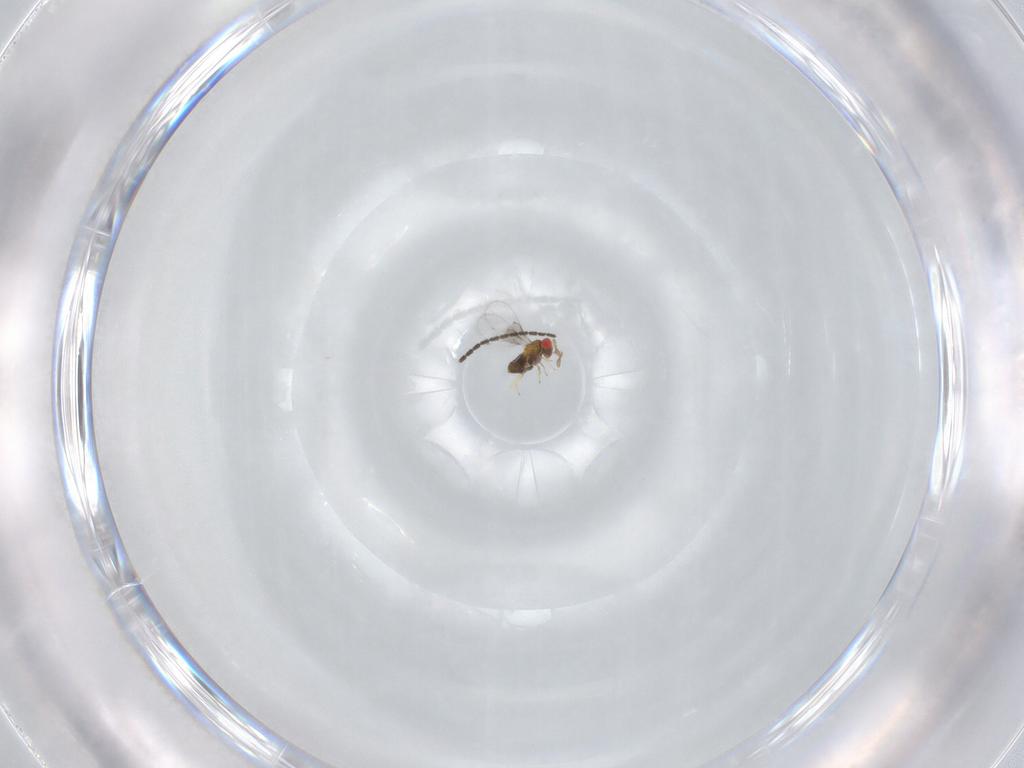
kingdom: Animalia
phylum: Arthropoda
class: Insecta
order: Hymenoptera
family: Trichogrammatidae
